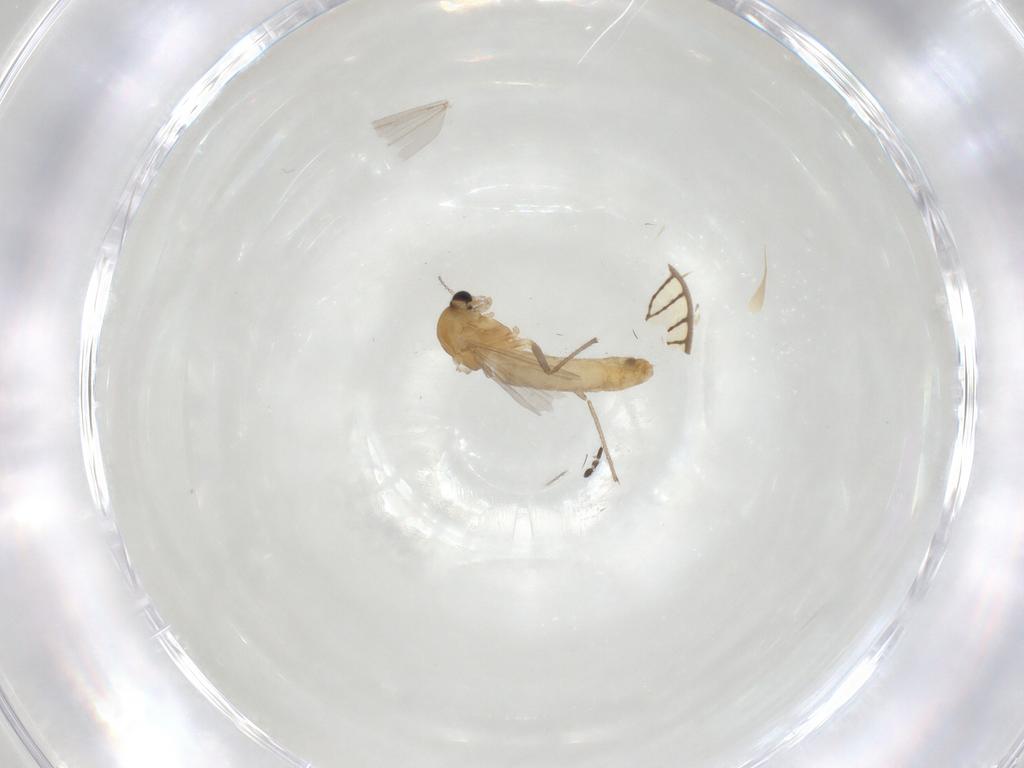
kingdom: Animalia
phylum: Arthropoda
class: Insecta
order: Diptera
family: Chironomidae
